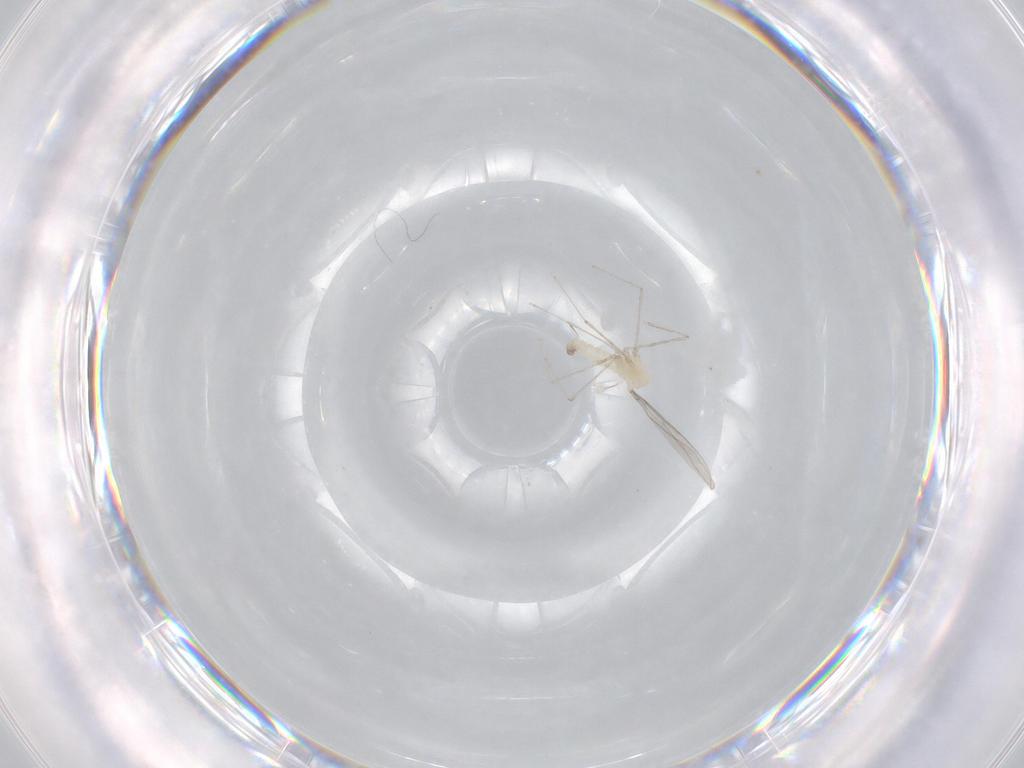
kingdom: Animalia
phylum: Arthropoda
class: Insecta
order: Diptera
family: Cecidomyiidae
